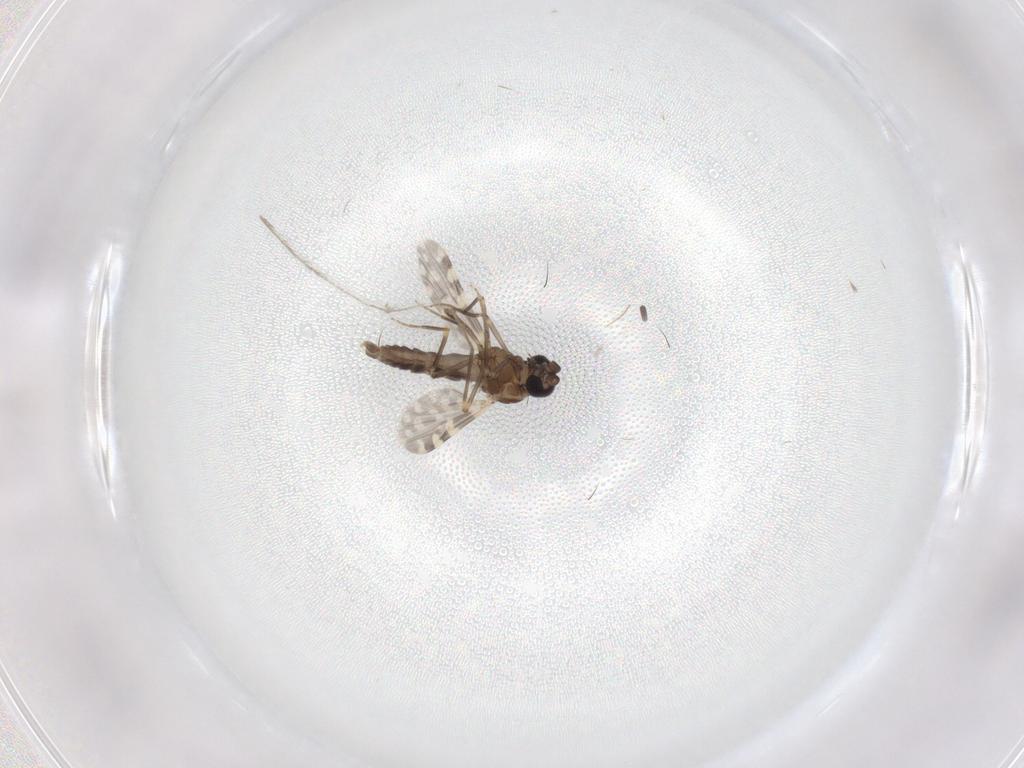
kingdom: Animalia
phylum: Arthropoda
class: Insecta
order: Diptera
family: Ceratopogonidae
